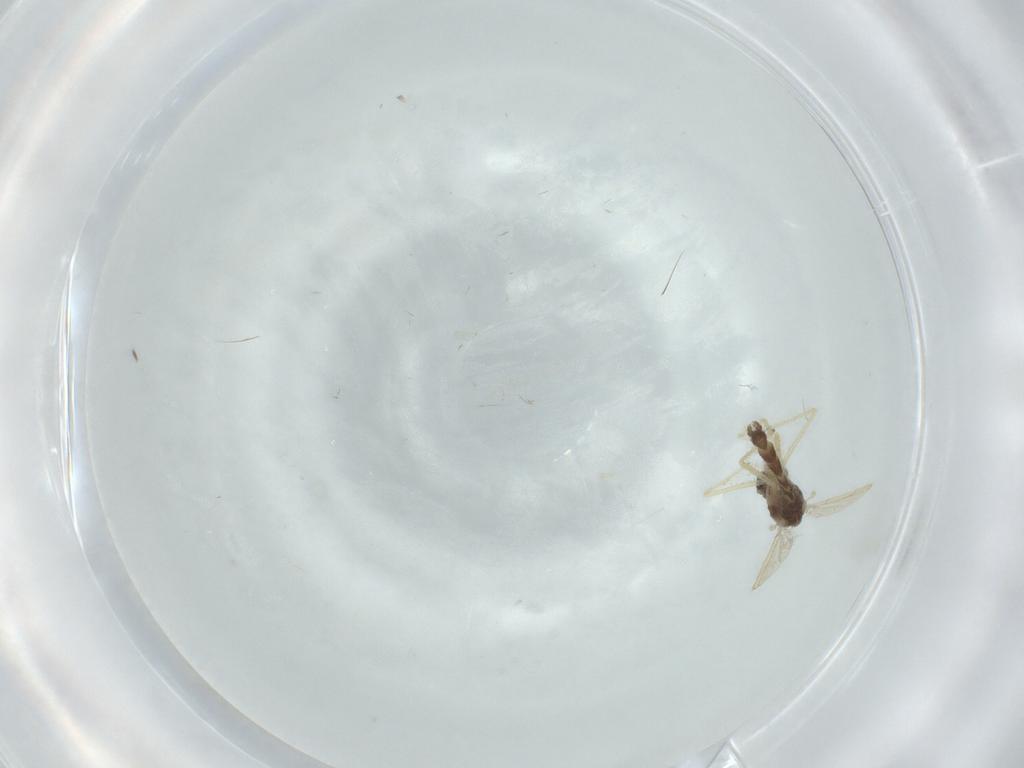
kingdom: Animalia
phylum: Arthropoda
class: Insecta
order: Diptera
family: Chironomidae
